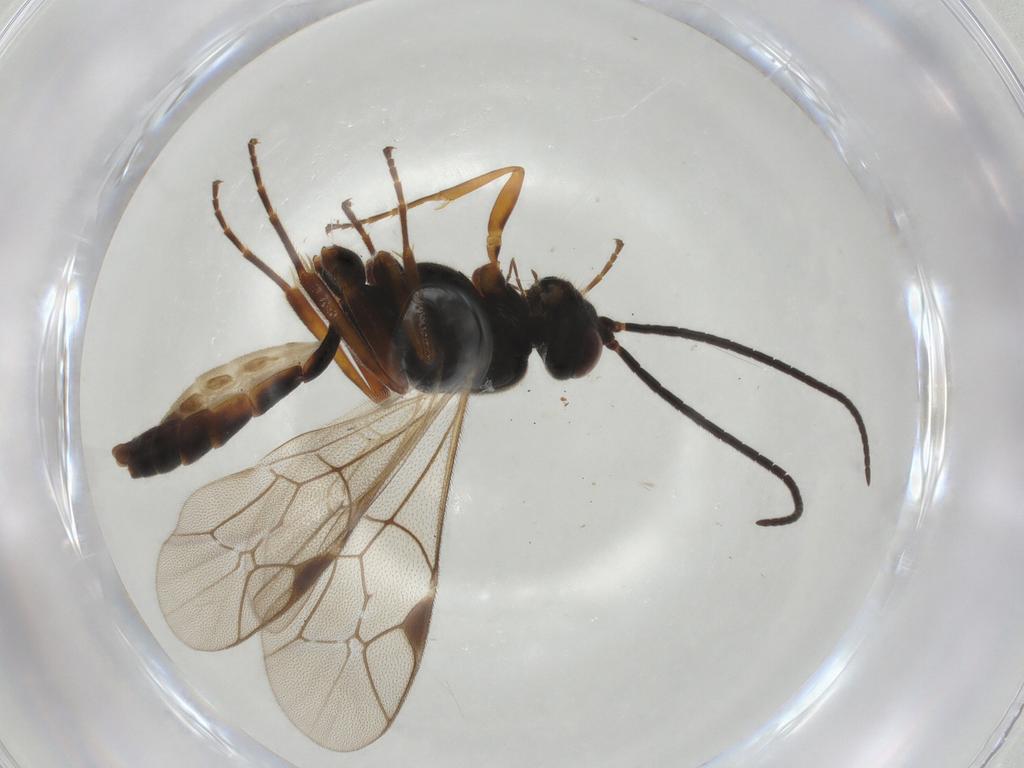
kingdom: Animalia
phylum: Arthropoda
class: Insecta
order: Hymenoptera
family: Ichneumonidae
